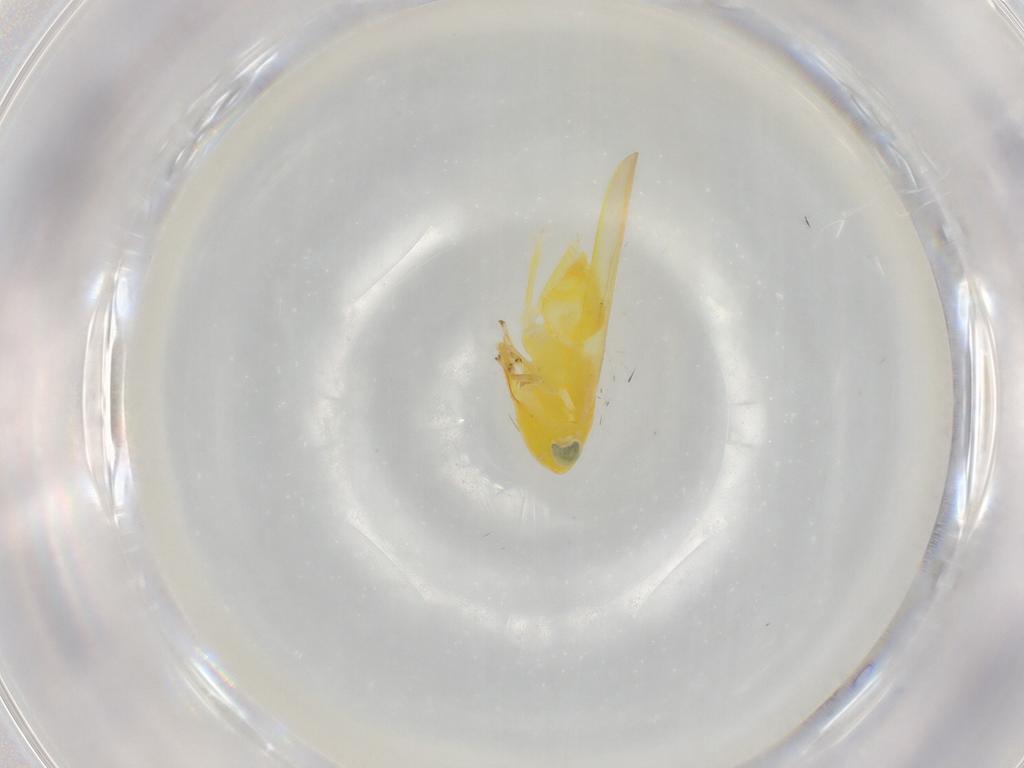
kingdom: Animalia
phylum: Arthropoda
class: Insecta
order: Hemiptera
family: Cicadellidae
